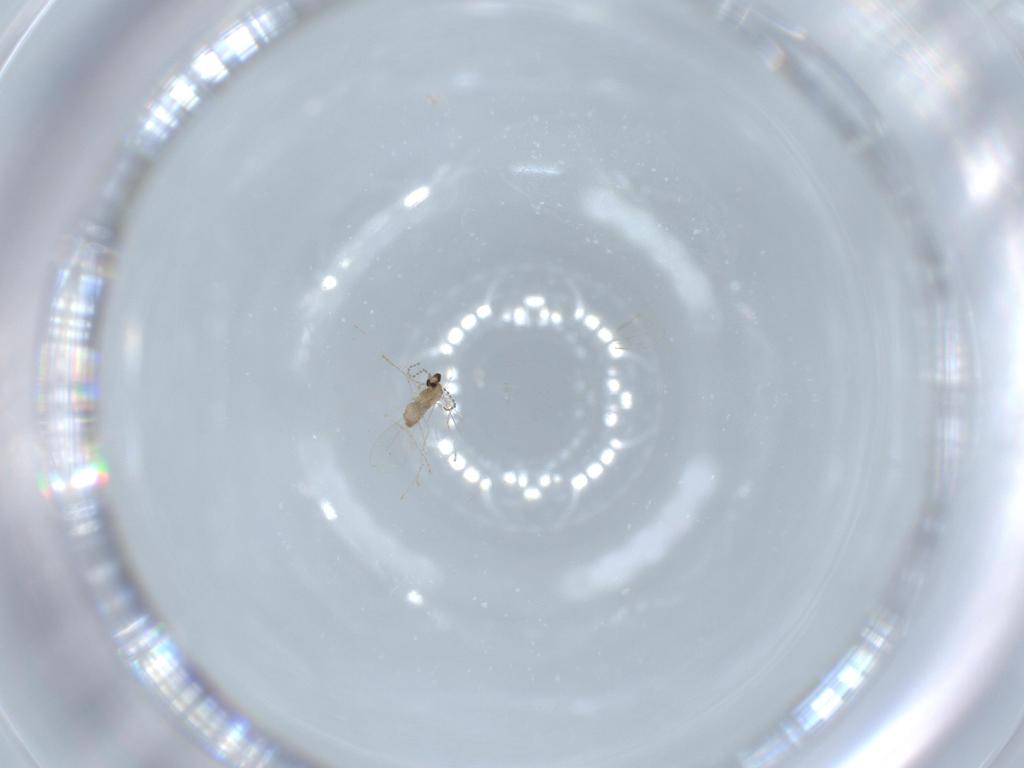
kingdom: Animalia
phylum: Arthropoda
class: Insecta
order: Diptera
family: Cecidomyiidae
